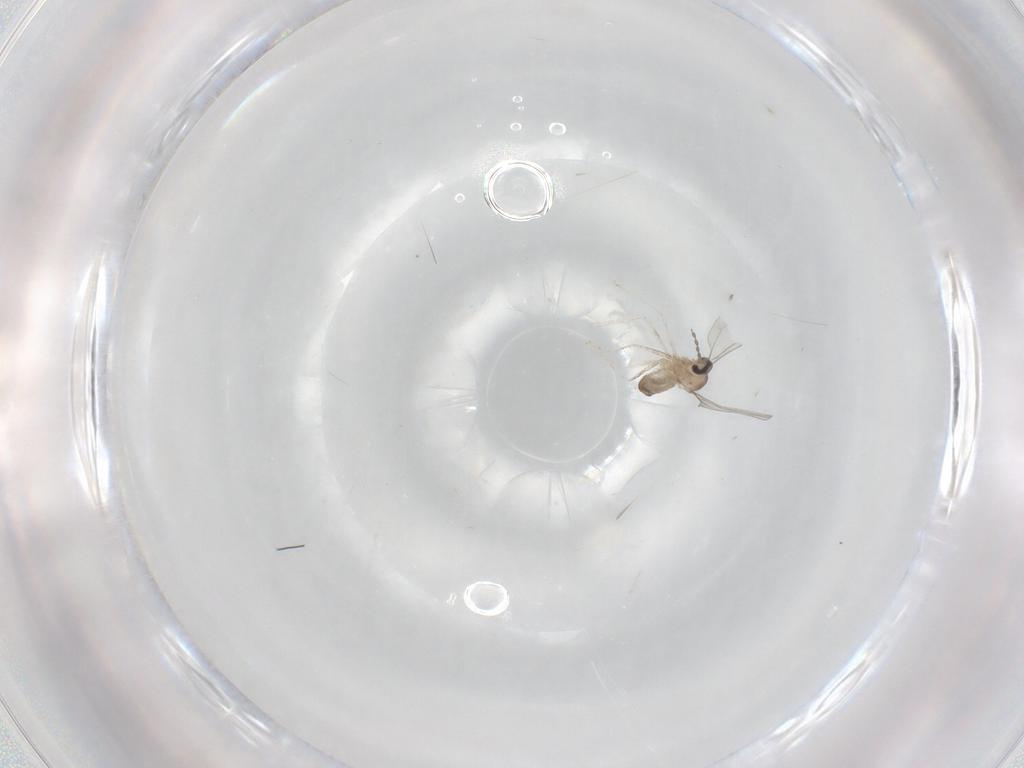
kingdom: Animalia
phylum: Arthropoda
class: Insecta
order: Diptera
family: Cecidomyiidae
